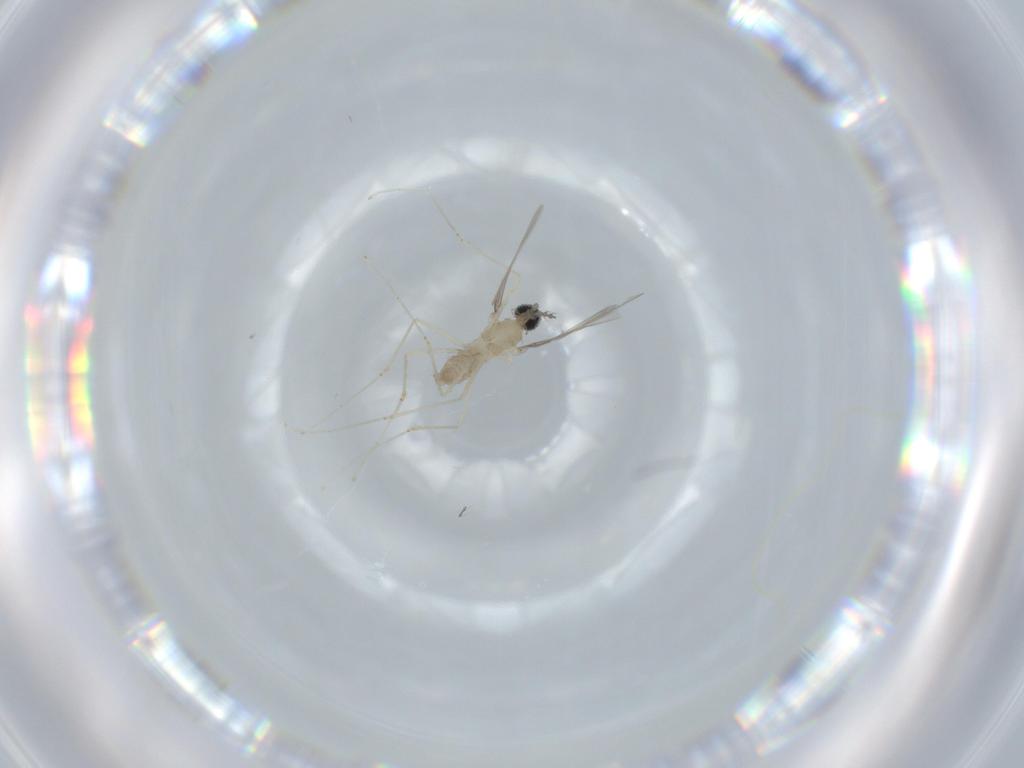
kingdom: Animalia
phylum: Arthropoda
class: Insecta
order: Diptera
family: Cecidomyiidae
